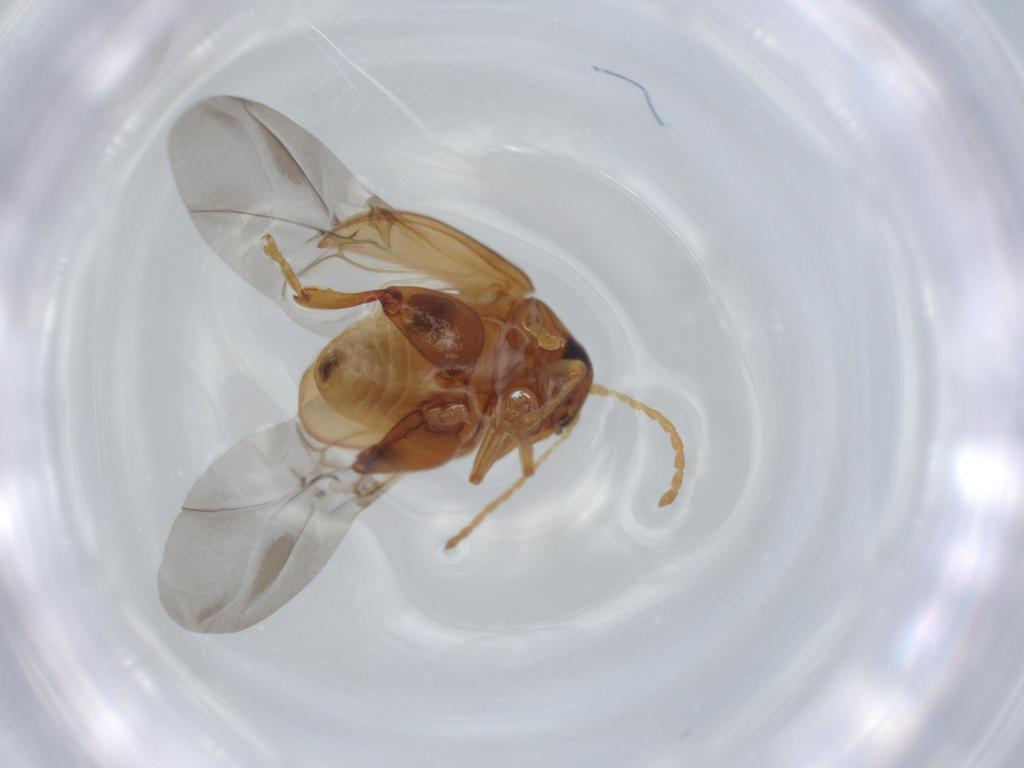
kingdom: Animalia
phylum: Arthropoda
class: Insecta
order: Coleoptera
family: Chrysomelidae
